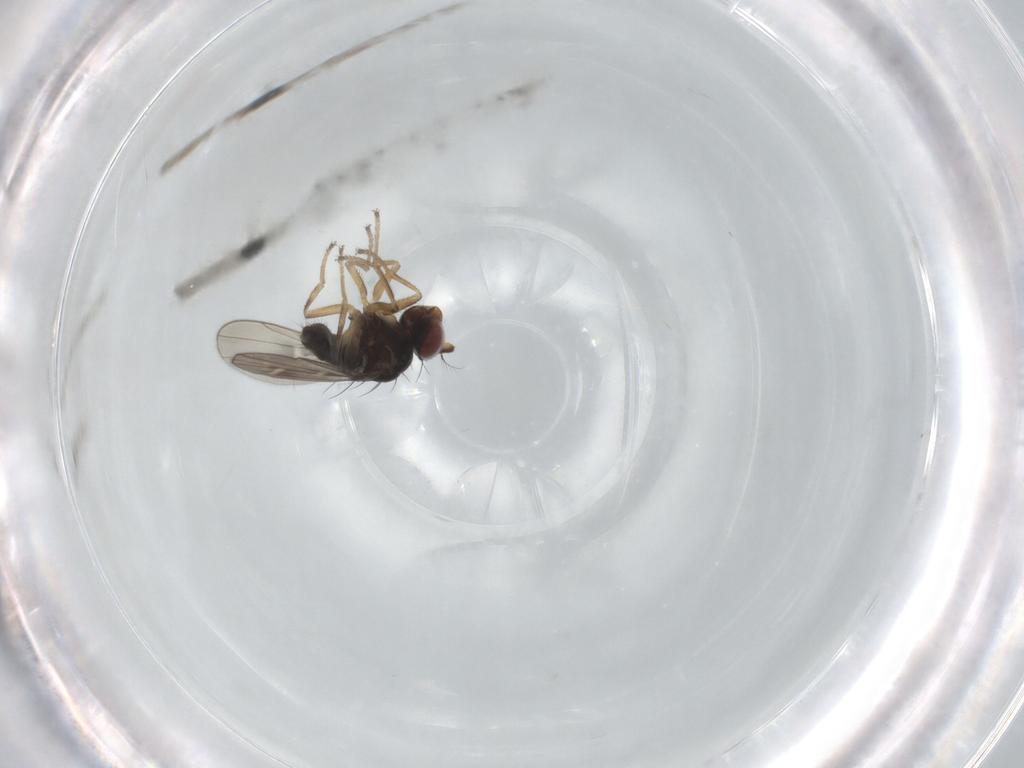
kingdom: Animalia
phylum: Arthropoda
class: Insecta
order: Diptera
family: Ephydridae
